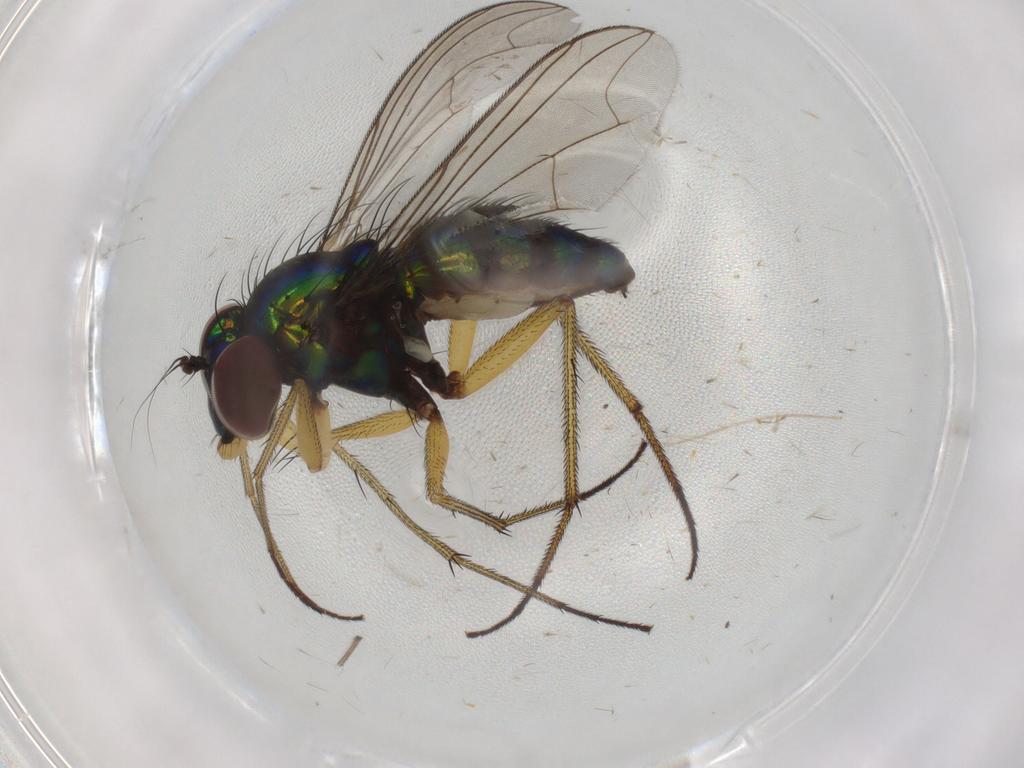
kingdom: Animalia
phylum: Arthropoda
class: Insecta
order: Diptera
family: Dolichopodidae
